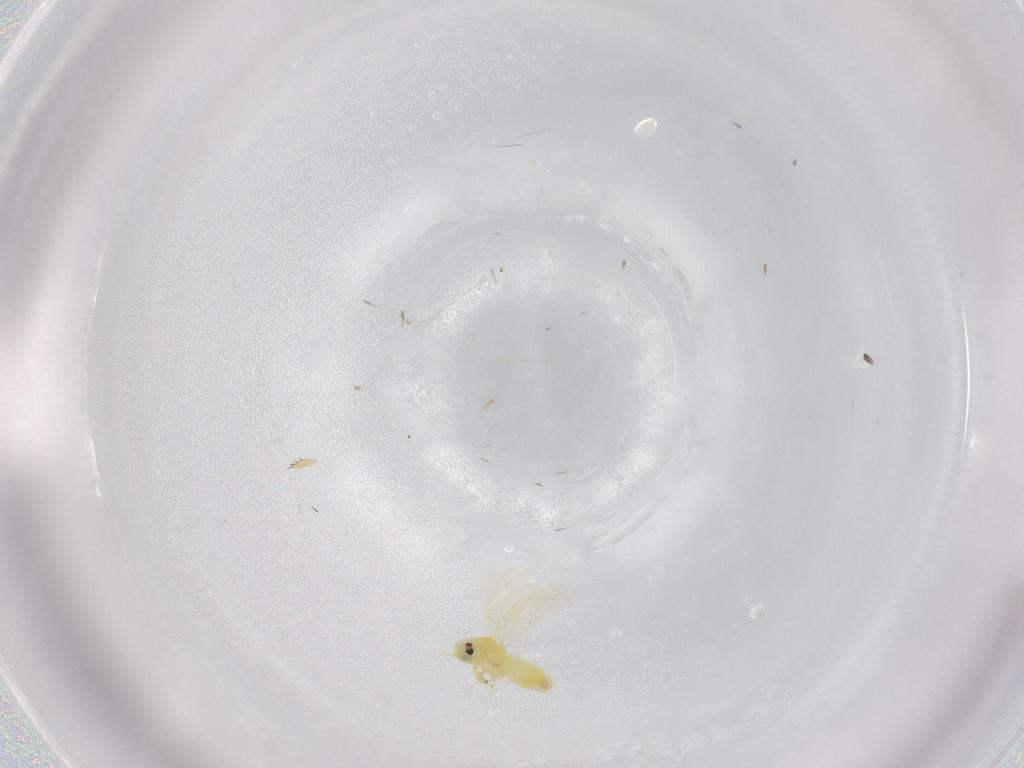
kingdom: Animalia
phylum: Arthropoda
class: Insecta
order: Hemiptera
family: Aleyrodidae
